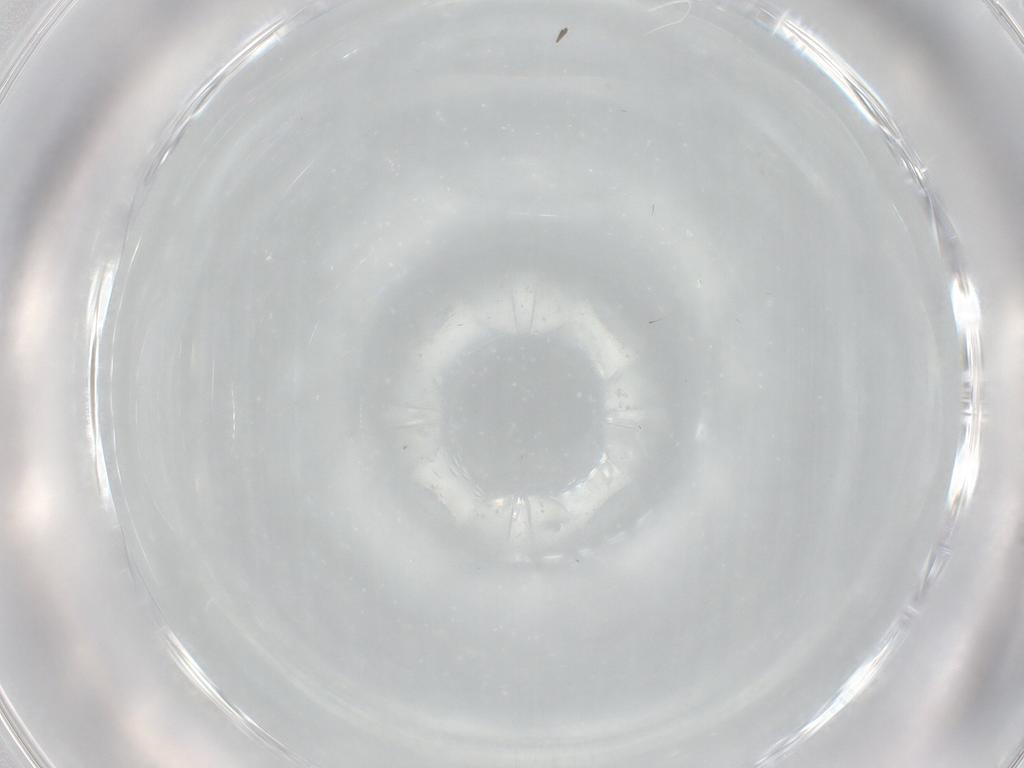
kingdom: Animalia
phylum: Arthropoda
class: Insecta
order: Diptera
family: Cecidomyiidae
